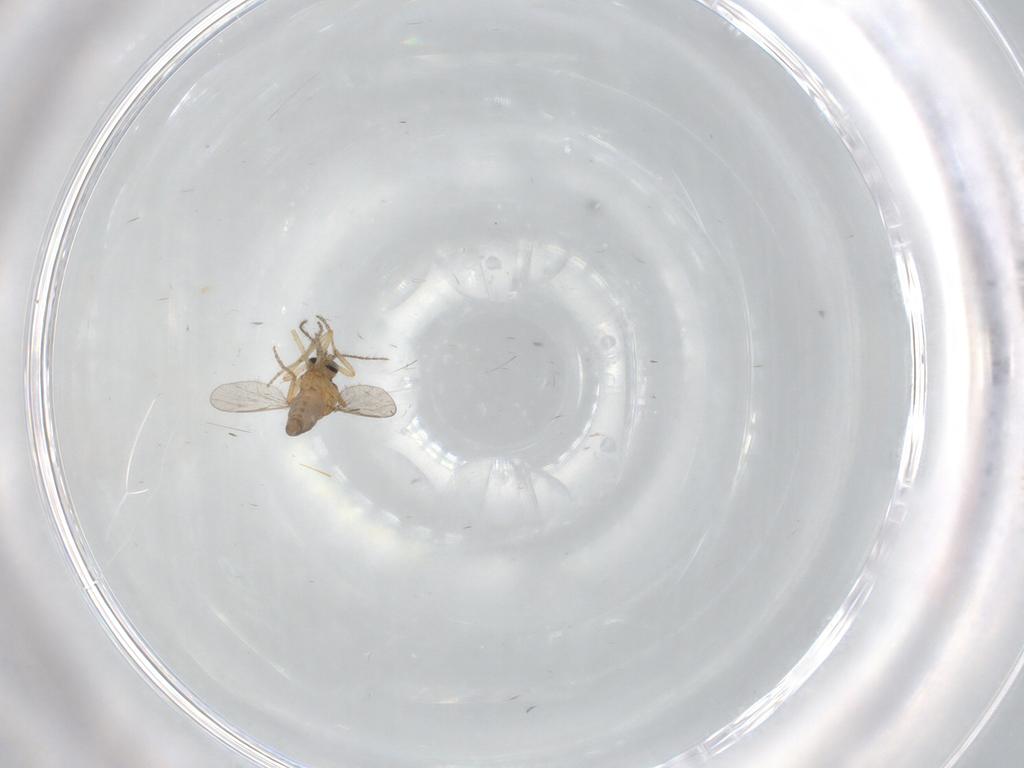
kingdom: Animalia
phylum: Arthropoda
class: Insecta
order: Diptera
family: Ceratopogonidae
